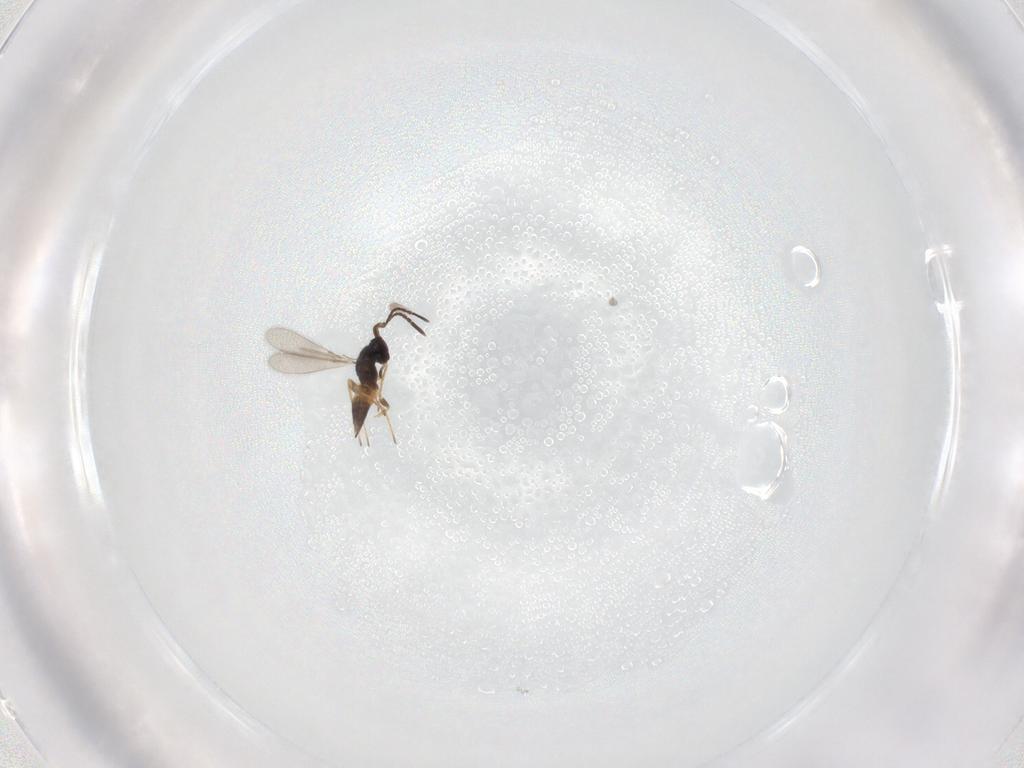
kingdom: Animalia
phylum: Arthropoda
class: Insecta
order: Hymenoptera
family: Mymaridae
